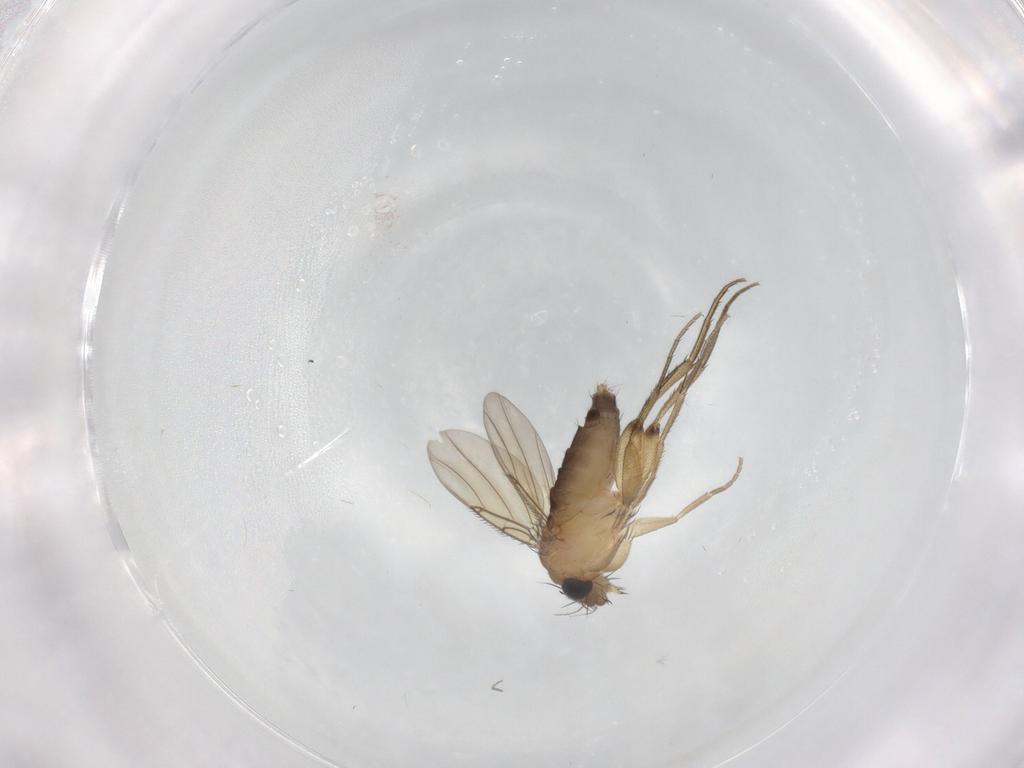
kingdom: Animalia
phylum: Arthropoda
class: Insecta
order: Diptera
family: Phoridae
